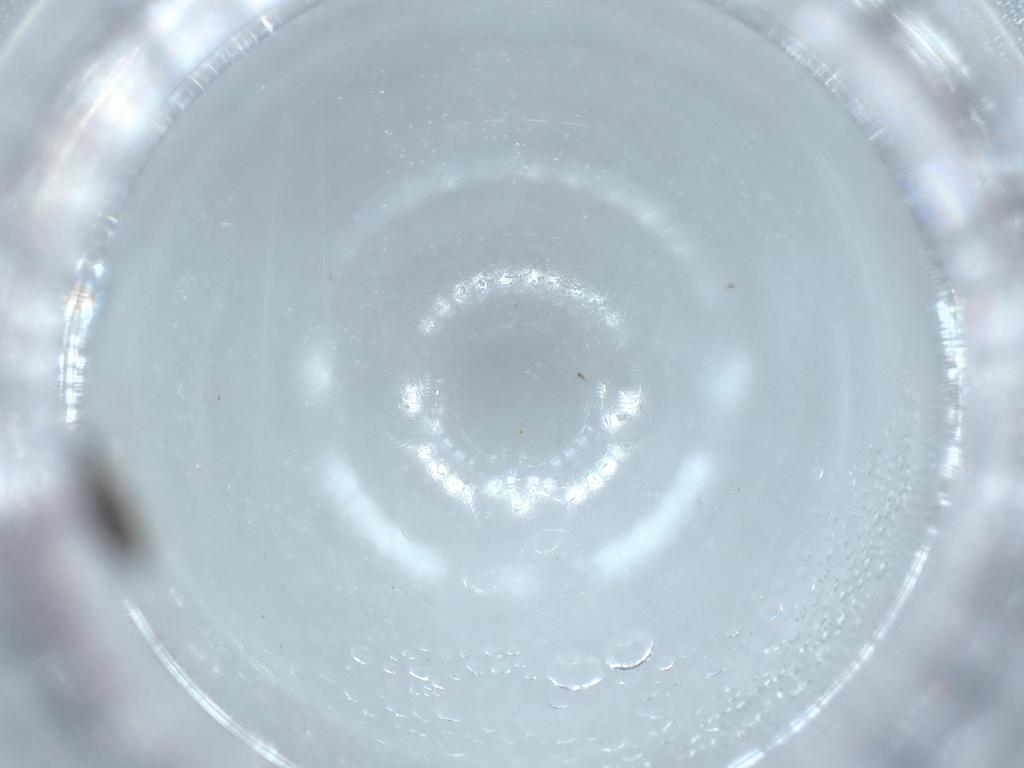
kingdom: Animalia
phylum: Arthropoda
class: Insecta
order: Diptera
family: Psychodidae
